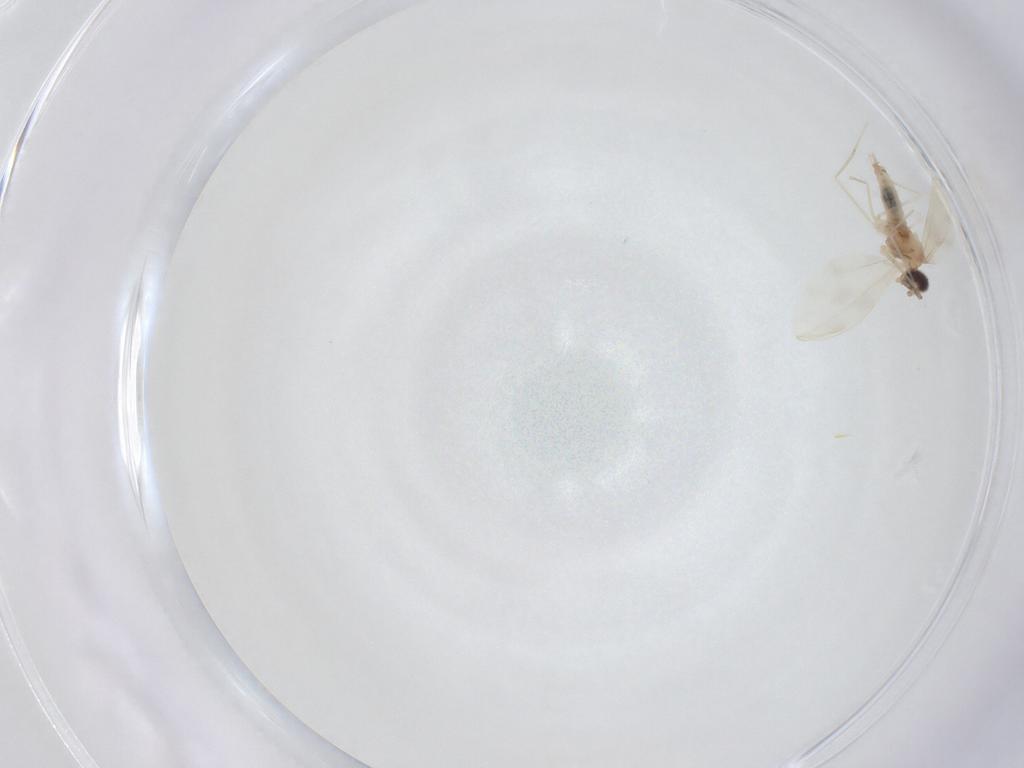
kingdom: Animalia
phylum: Arthropoda
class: Insecta
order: Diptera
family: Cecidomyiidae
